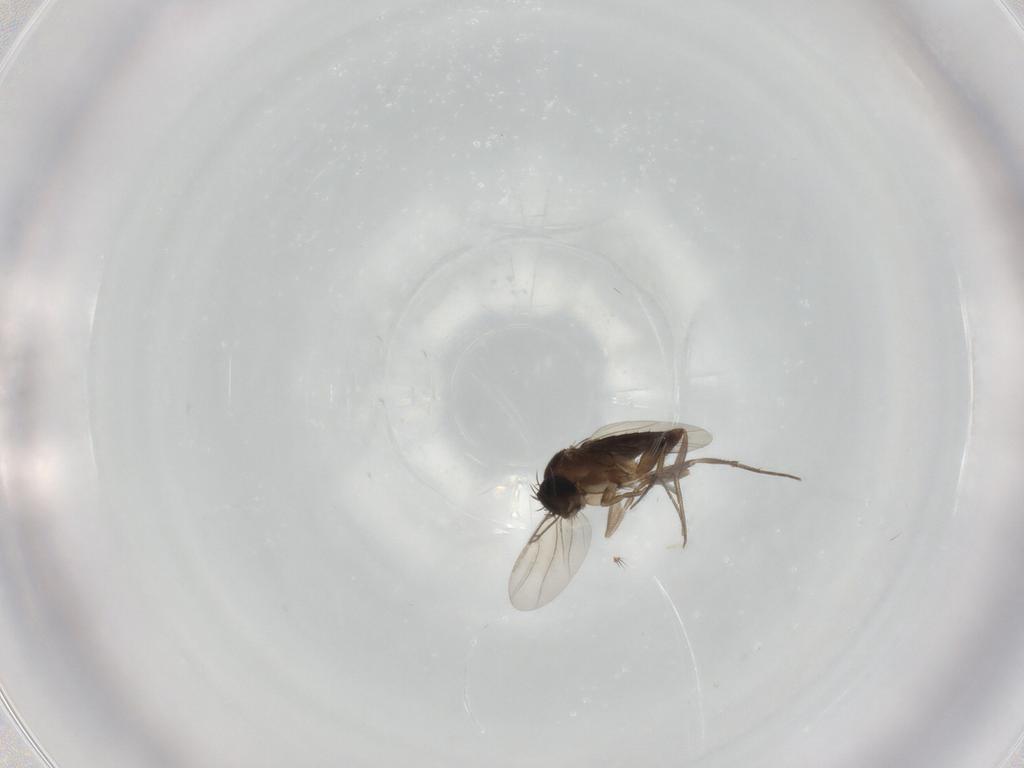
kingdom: Animalia
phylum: Arthropoda
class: Insecta
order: Diptera
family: Phoridae
